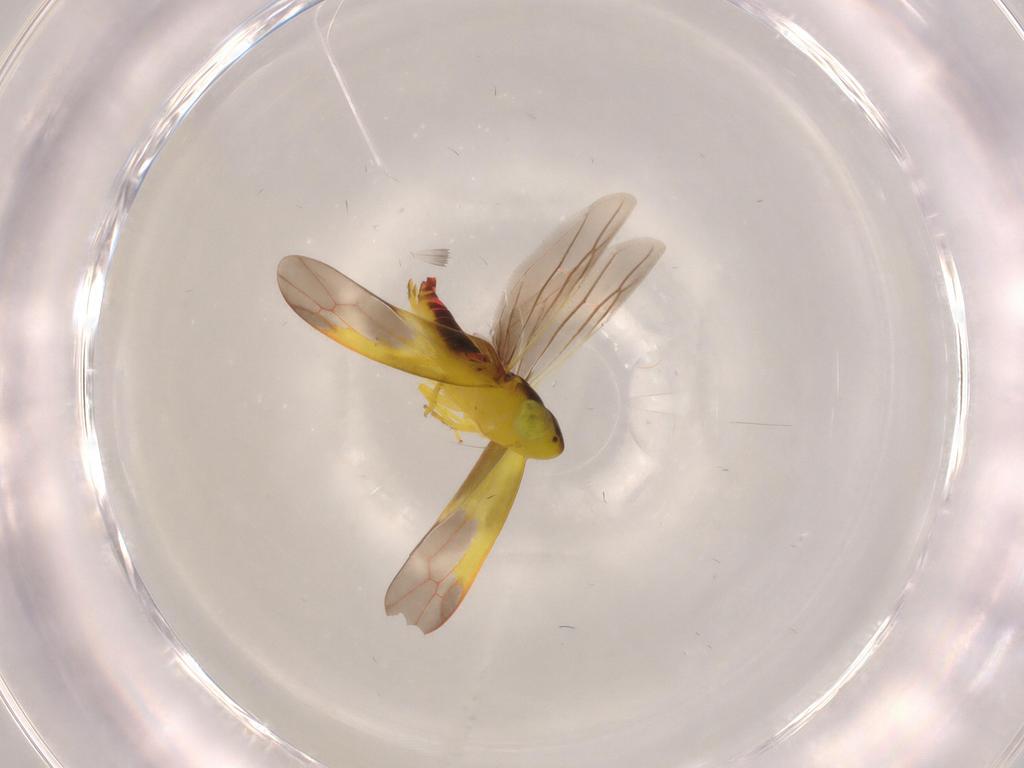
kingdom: Animalia
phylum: Arthropoda
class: Insecta
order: Hemiptera
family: Cicadellidae
